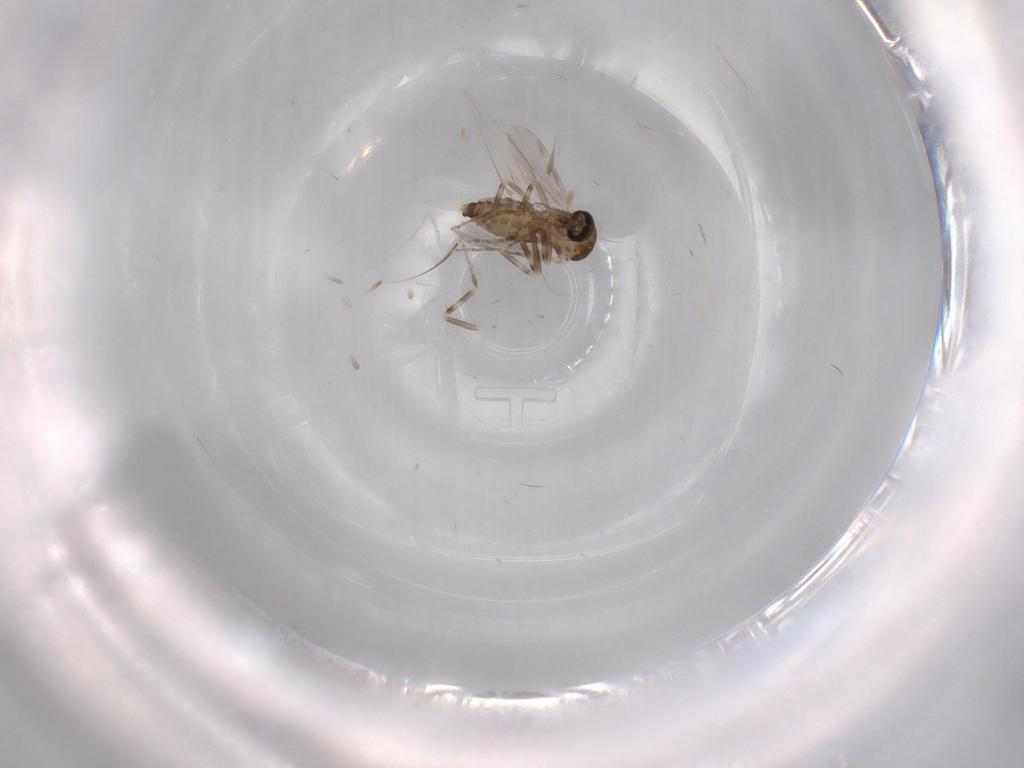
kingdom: Animalia
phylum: Arthropoda
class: Insecta
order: Diptera
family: Ceratopogonidae
